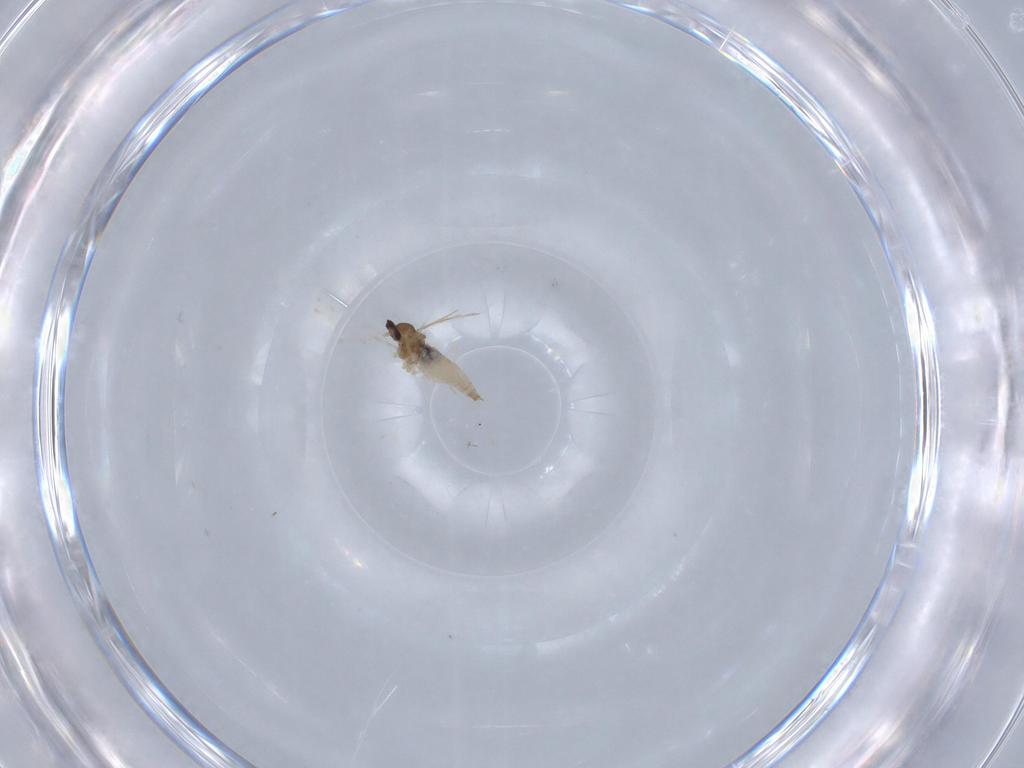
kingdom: Animalia
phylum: Arthropoda
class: Insecta
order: Diptera
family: Cecidomyiidae
